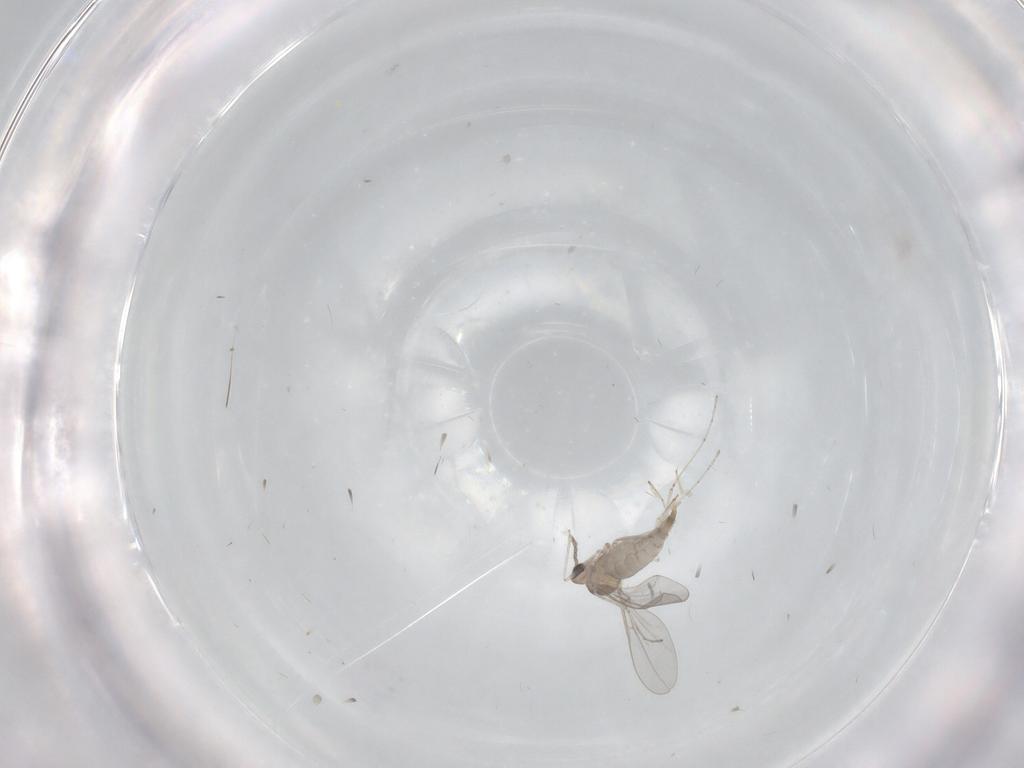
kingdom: Animalia
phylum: Arthropoda
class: Insecta
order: Diptera
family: Cecidomyiidae
